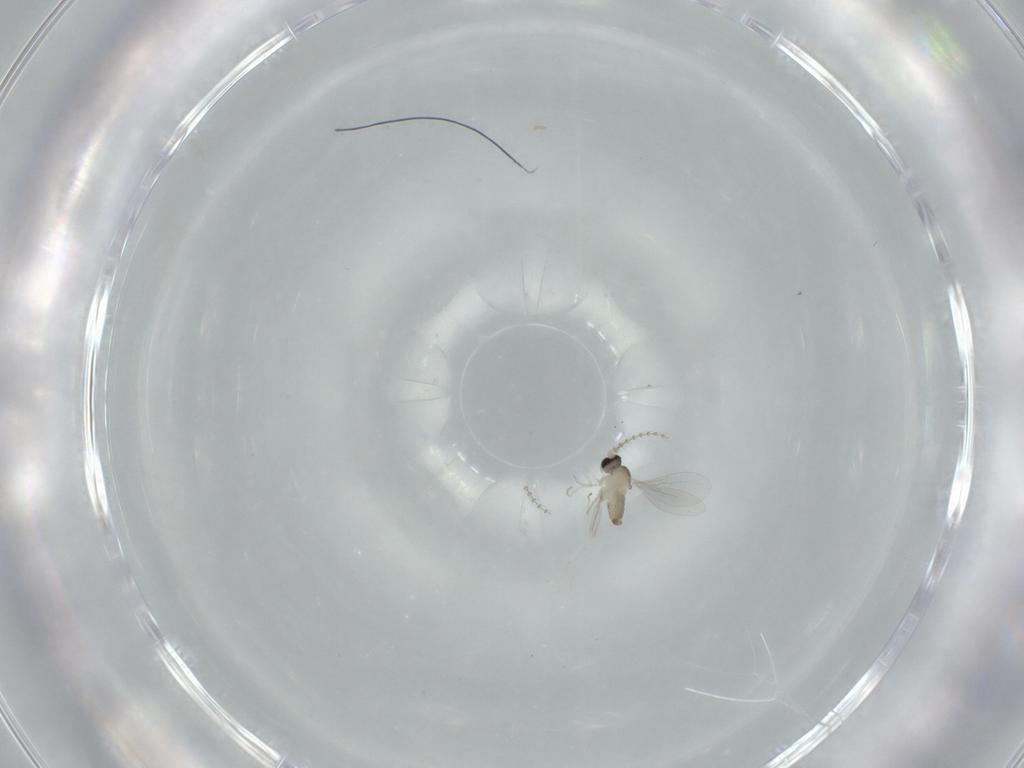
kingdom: Animalia
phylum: Arthropoda
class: Insecta
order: Diptera
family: Cecidomyiidae
